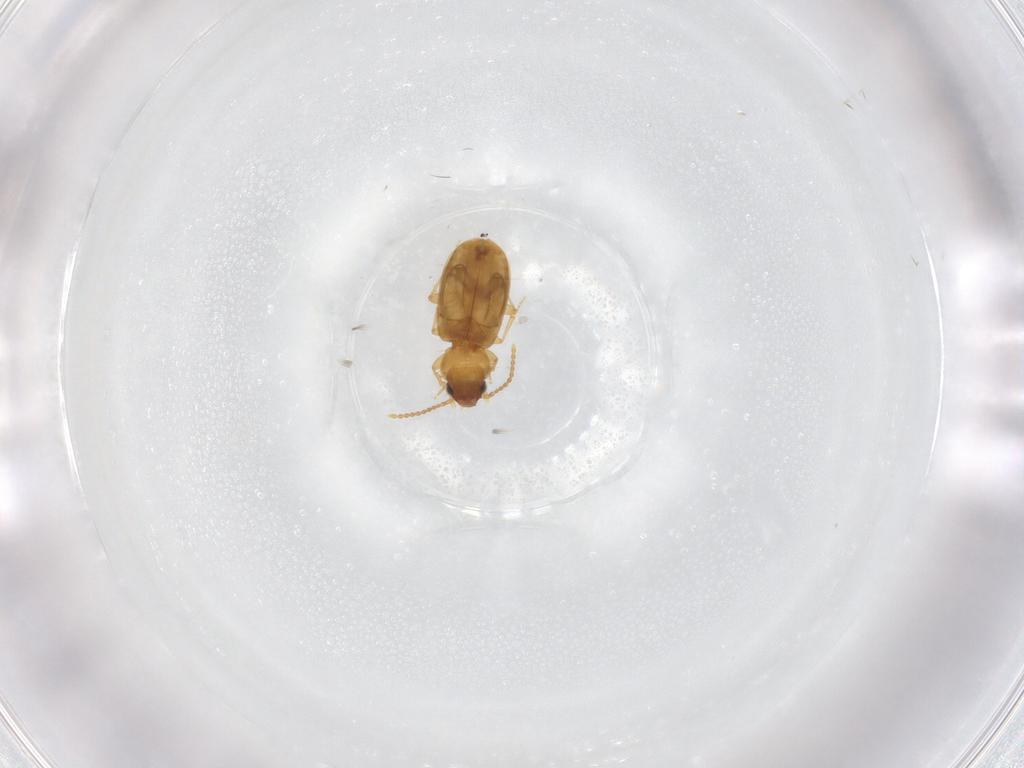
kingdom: Animalia
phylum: Arthropoda
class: Insecta
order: Coleoptera
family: Carabidae
